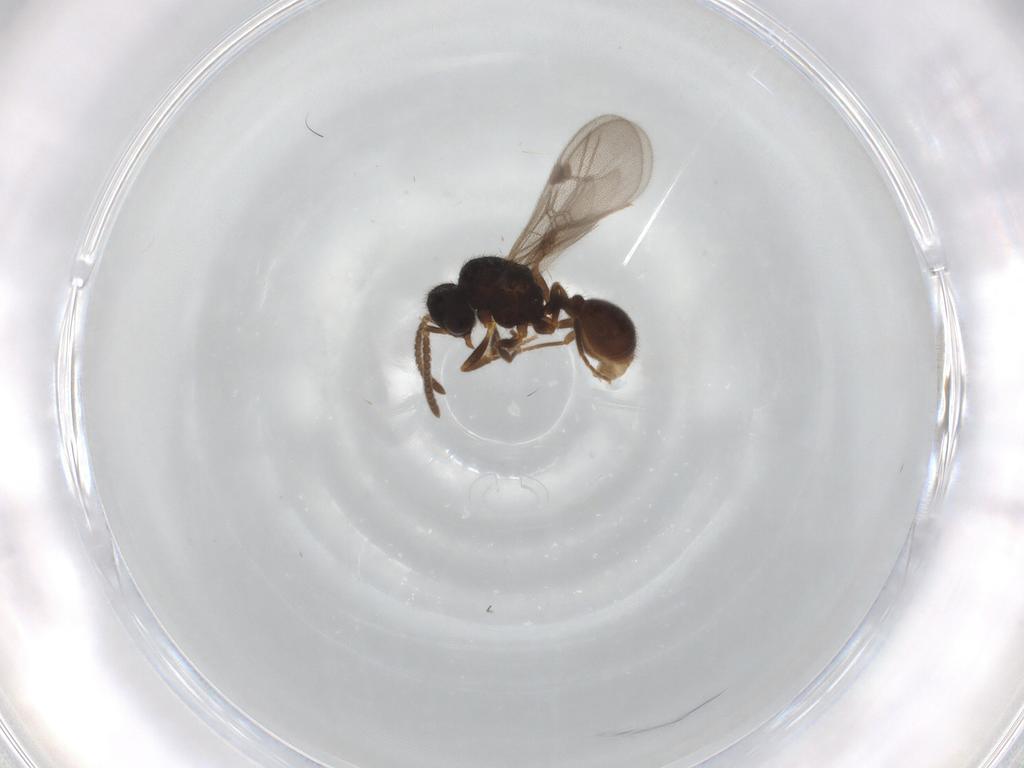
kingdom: Animalia
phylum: Arthropoda
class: Insecta
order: Hymenoptera
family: Formicidae
